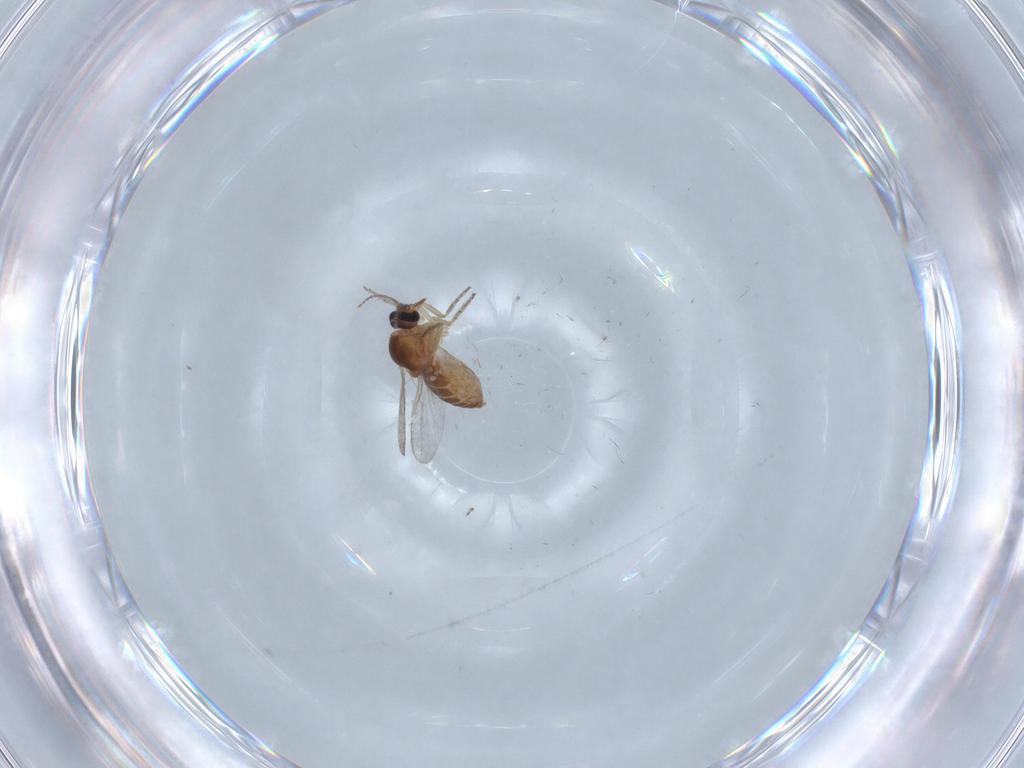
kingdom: Animalia
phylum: Arthropoda
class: Insecta
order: Diptera
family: Ceratopogonidae
